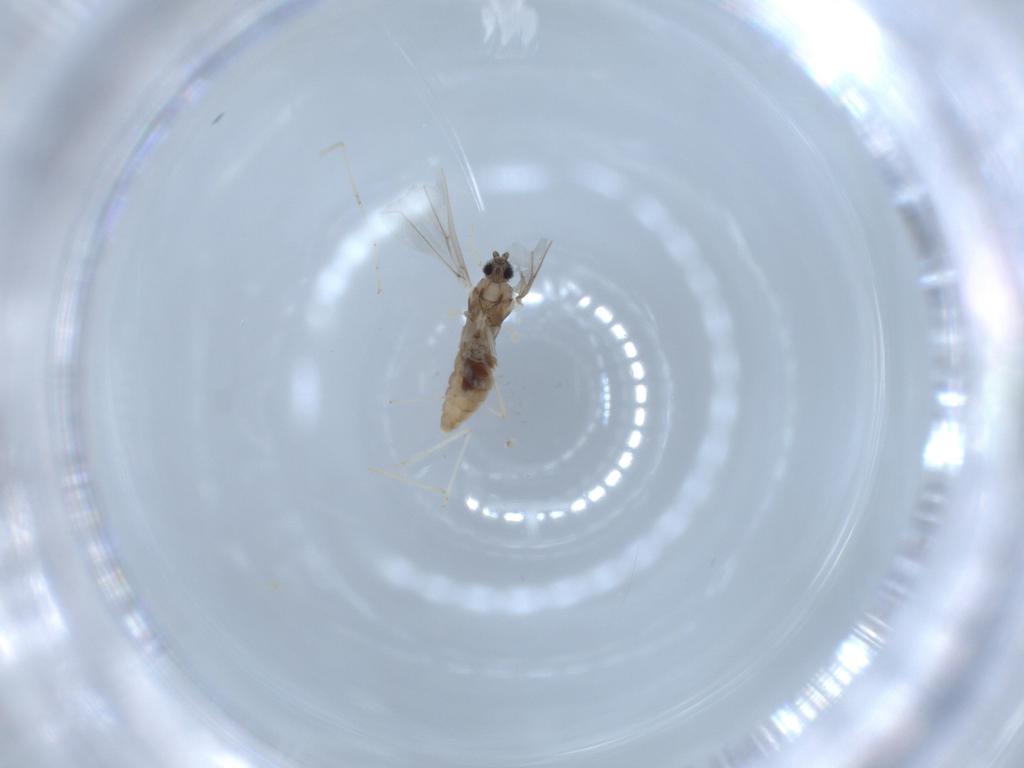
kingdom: Animalia
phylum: Arthropoda
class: Insecta
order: Diptera
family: Cecidomyiidae
